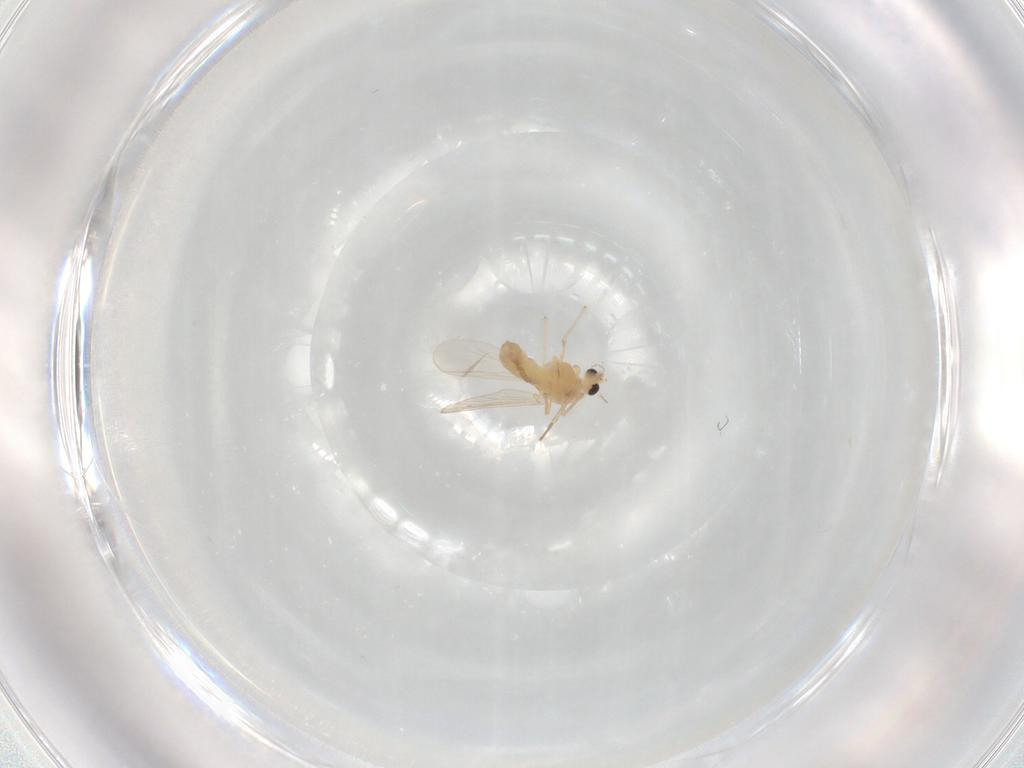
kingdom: Animalia
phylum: Arthropoda
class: Insecta
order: Diptera
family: Chironomidae
